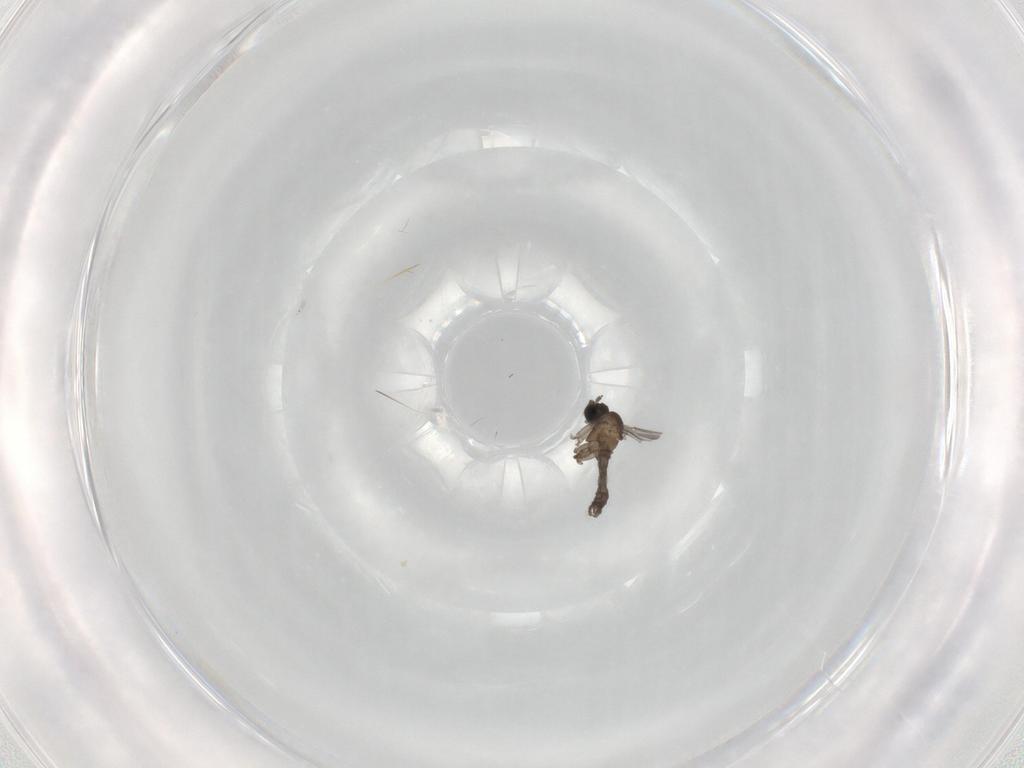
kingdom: Animalia
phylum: Arthropoda
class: Insecta
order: Diptera
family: Sciaridae
